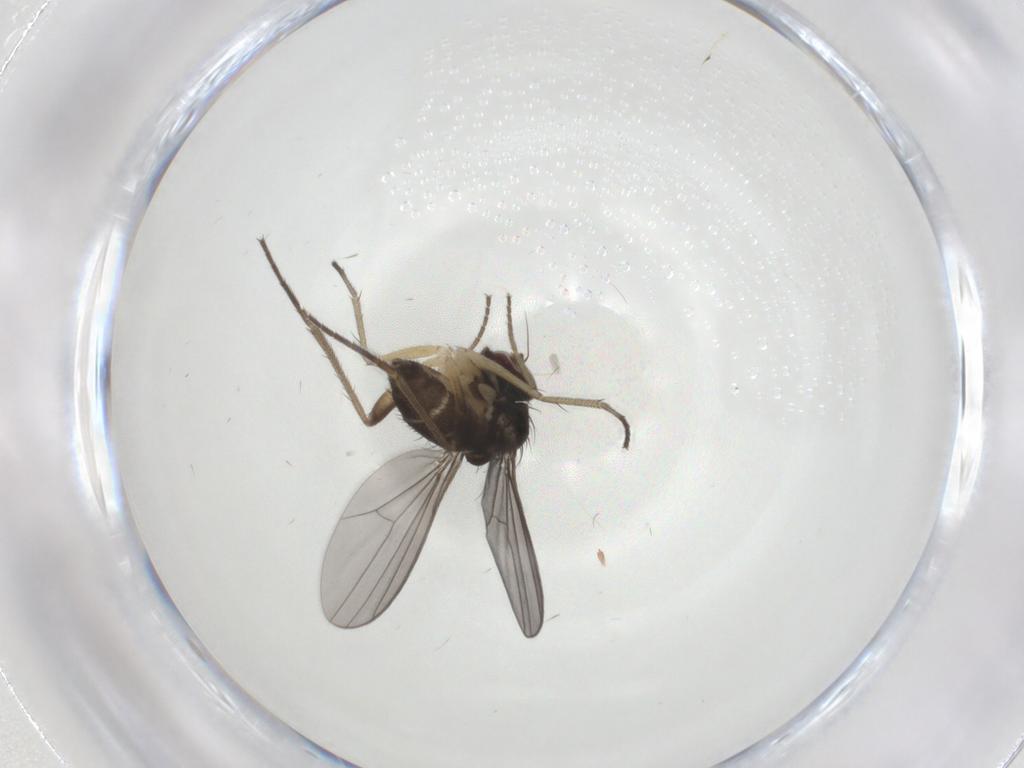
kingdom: Animalia
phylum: Arthropoda
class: Insecta
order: Diptera
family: Dolichopodidae
